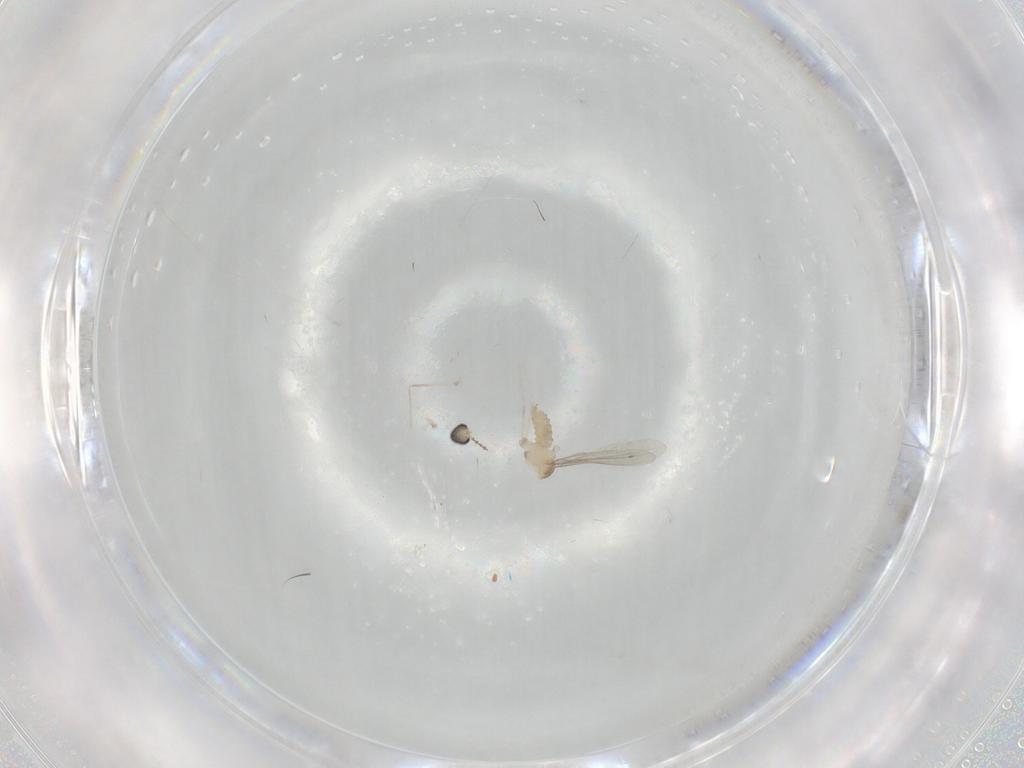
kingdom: Animalia
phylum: Arthropoda
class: Insecta
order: Diptera
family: Cecidomyiidae
